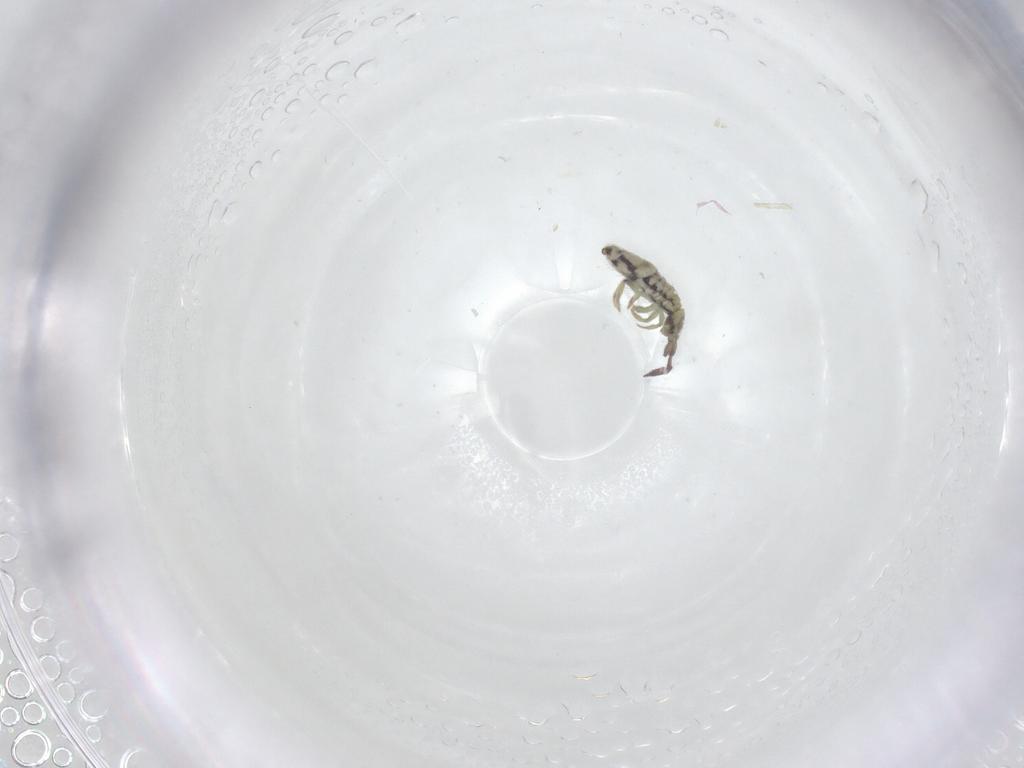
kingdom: Animalia
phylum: Arthropoda
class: Collembola
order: Entomobryomorpha
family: Entomobryidae
